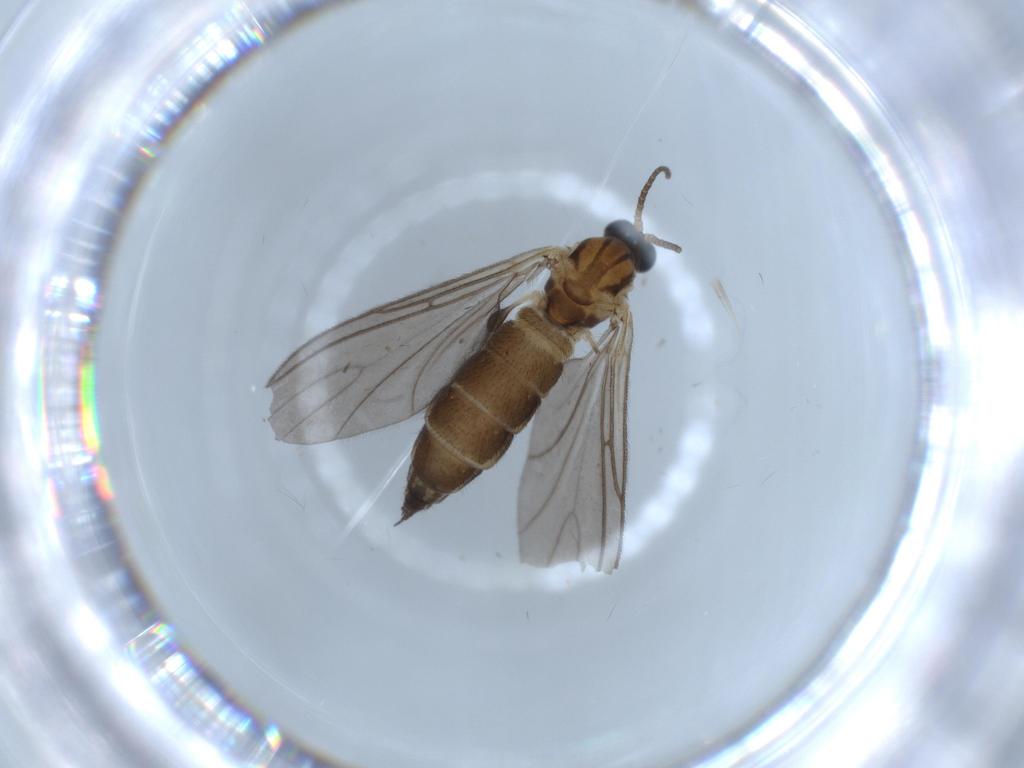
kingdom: Animalia
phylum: Arthropoda
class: Insecta
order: Diptera
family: Sciaridae
